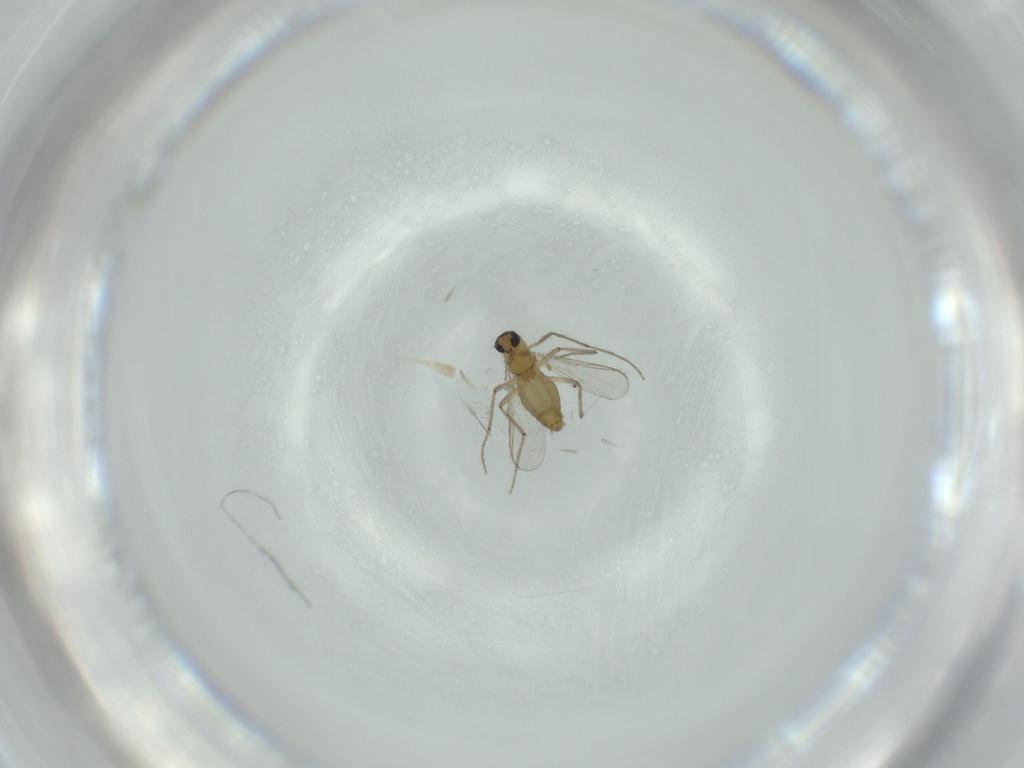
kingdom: Animalia
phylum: Arthropoda
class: Insecta
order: Diptera
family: Chironomidae
